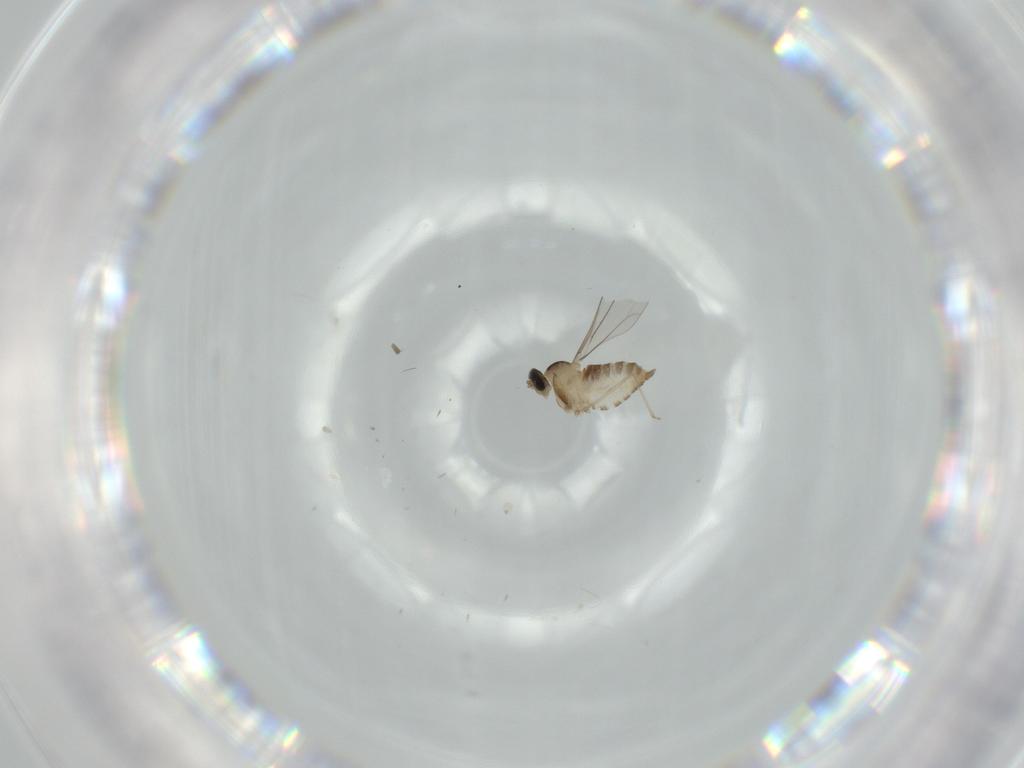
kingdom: Animalia
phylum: Arthropoda
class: Insecta
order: Diptera
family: Cecidomyiidae
